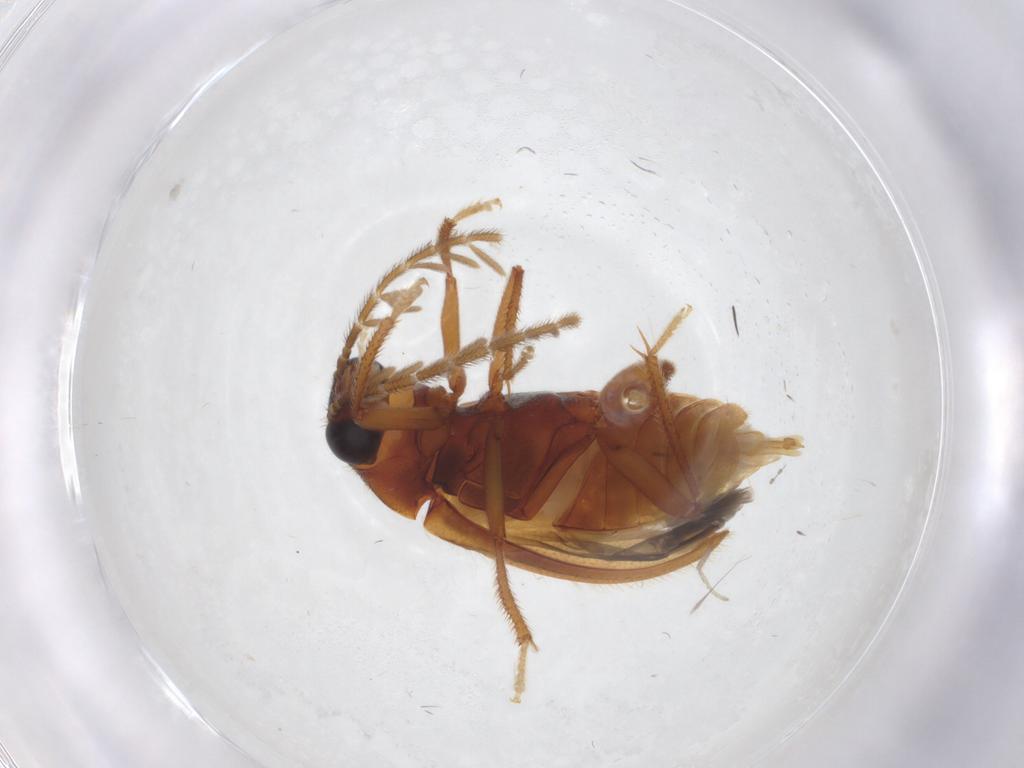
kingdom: Animalia
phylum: Arthropoda
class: Insecta
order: Coleoptera
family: Ptilodactylidae
